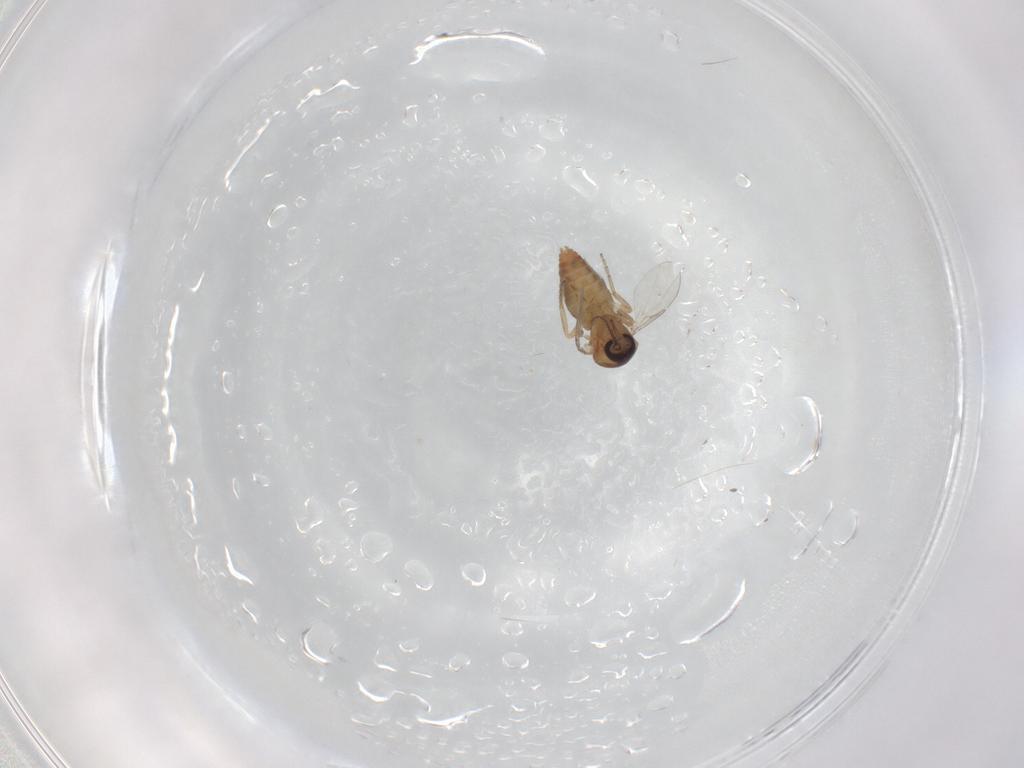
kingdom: Animalia
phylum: Arthropoda
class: Insecta
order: Diptera
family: Ceratopogonidae
